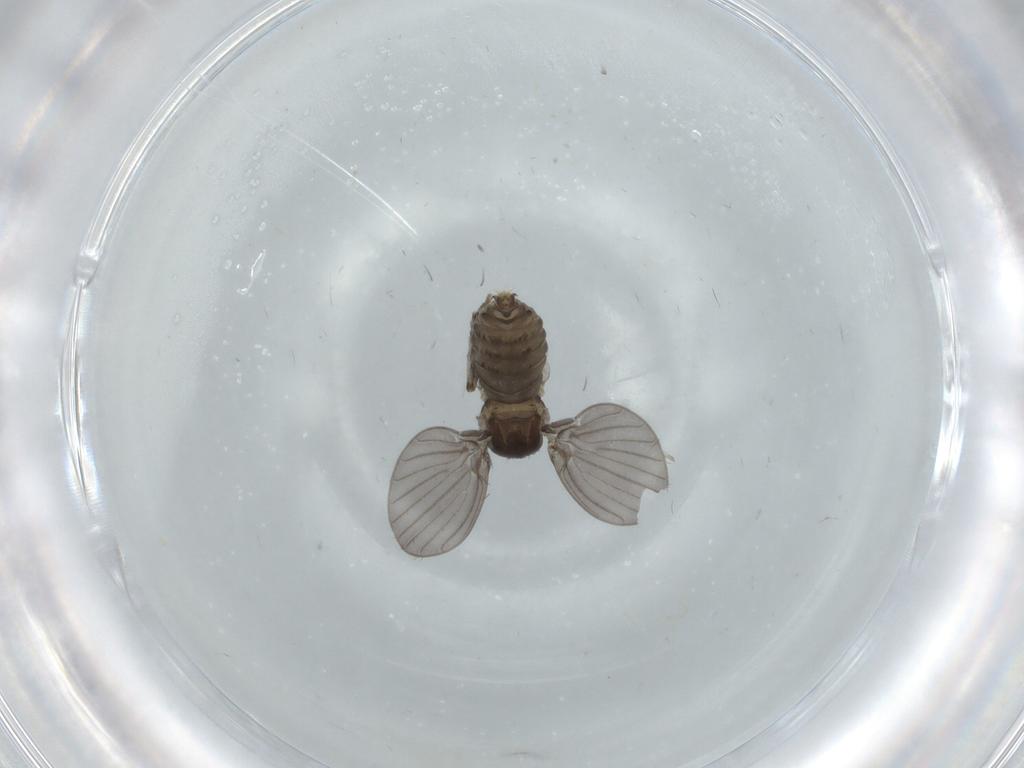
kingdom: Animalia
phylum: Arthropoda
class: Insecta
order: Diptera
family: Psychodidae
